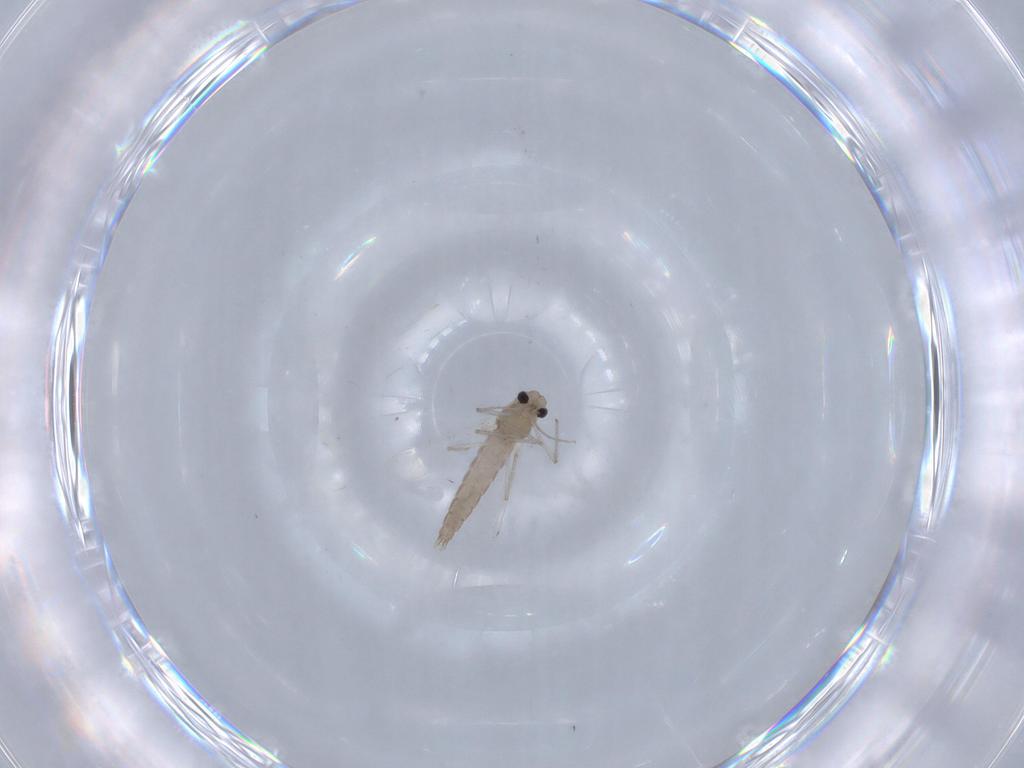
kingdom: Animalia
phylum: Arthropoda
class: Insecta
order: Diptera
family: Chironomidae
